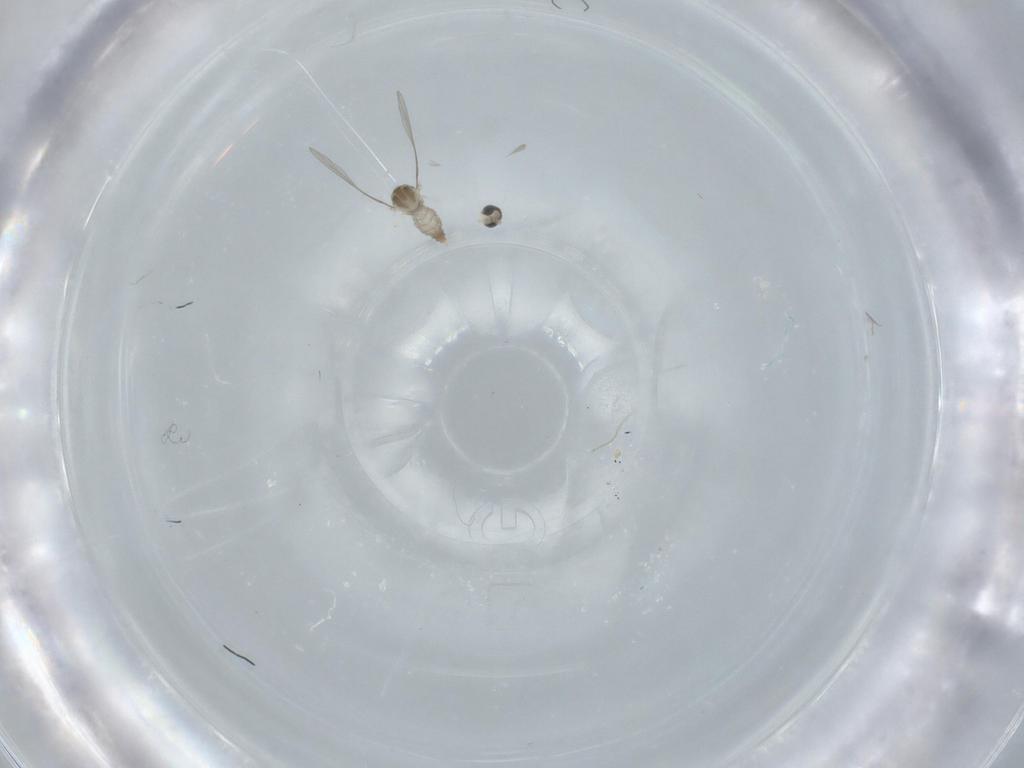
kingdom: Animalia
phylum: Arthropoda
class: Insecta
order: Diptera
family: Psychodidae
